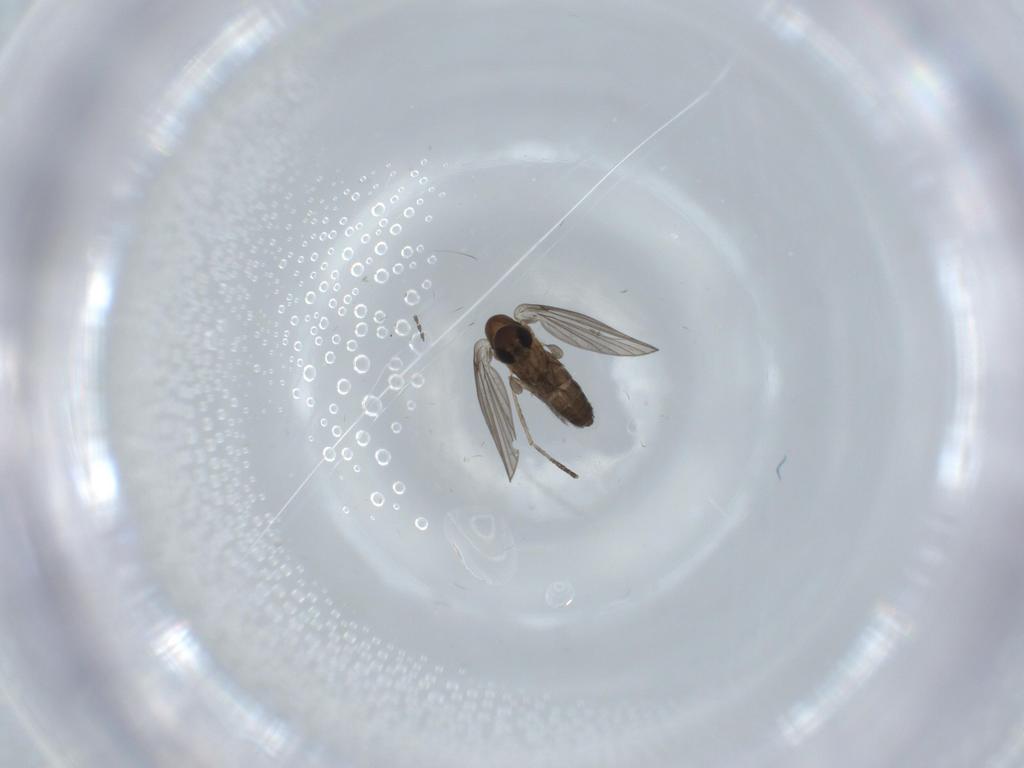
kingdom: Animalia
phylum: Arthropoda
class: Insecta
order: Diptera
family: Psychodidae
